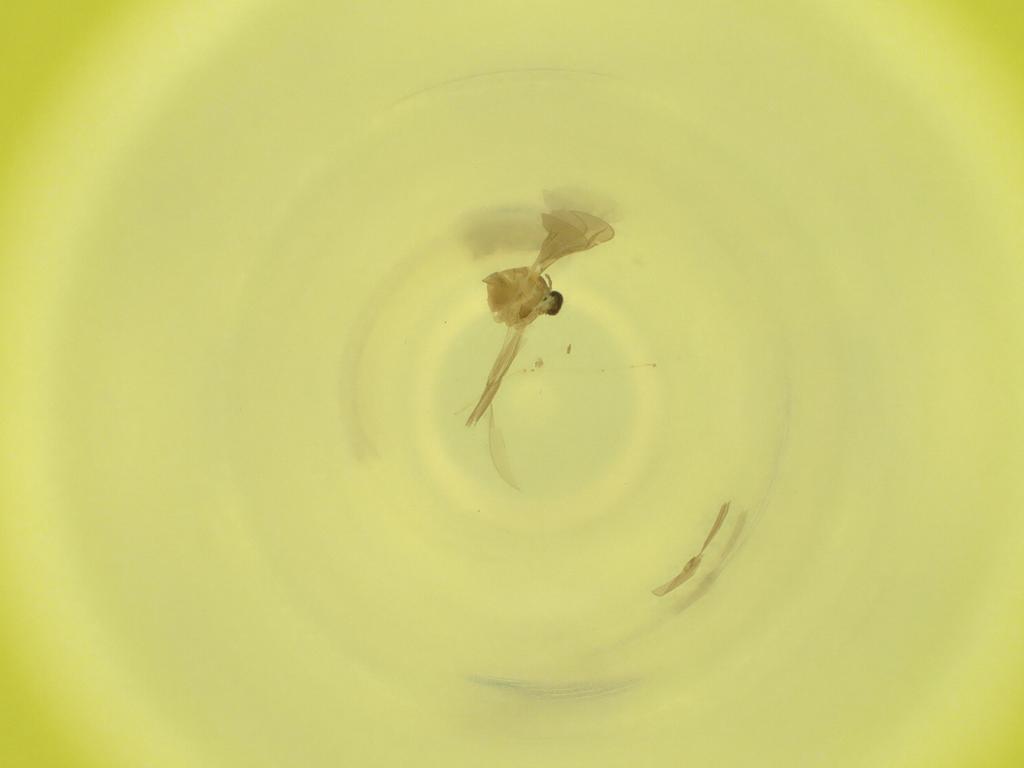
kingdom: Animalia
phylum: Arthropoda
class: Insecta
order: Diptera
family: Cecidomyiidae
